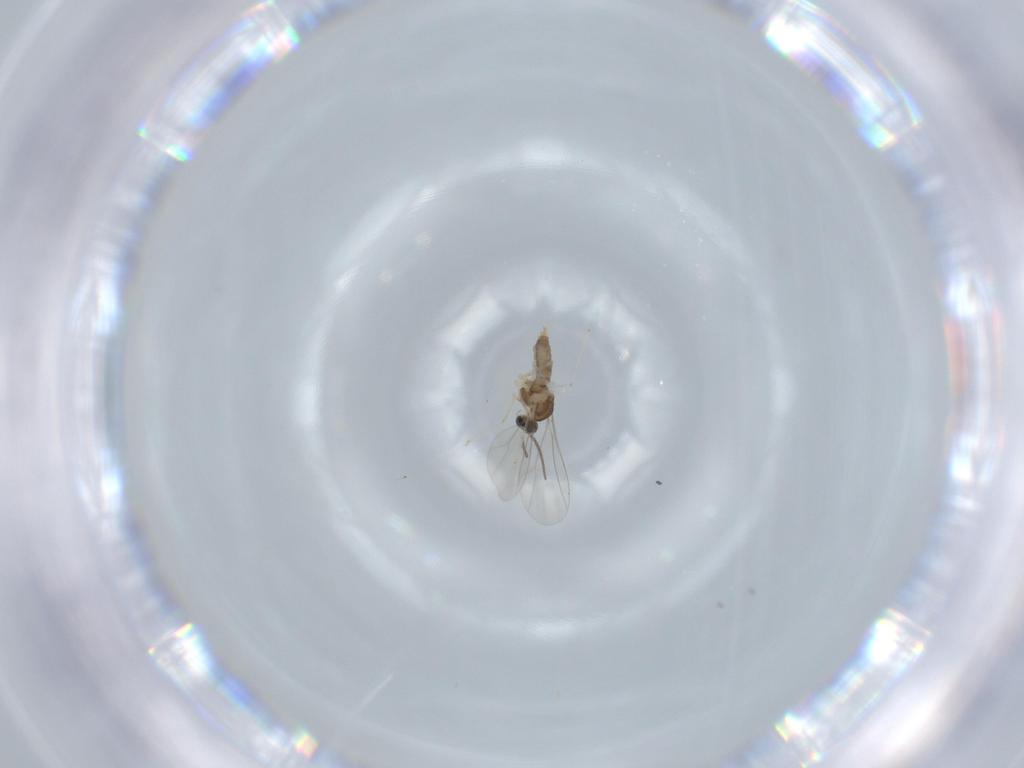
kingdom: Animalia
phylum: Arthropoda
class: Insecta
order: Diptera
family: Cecidomyiidae
